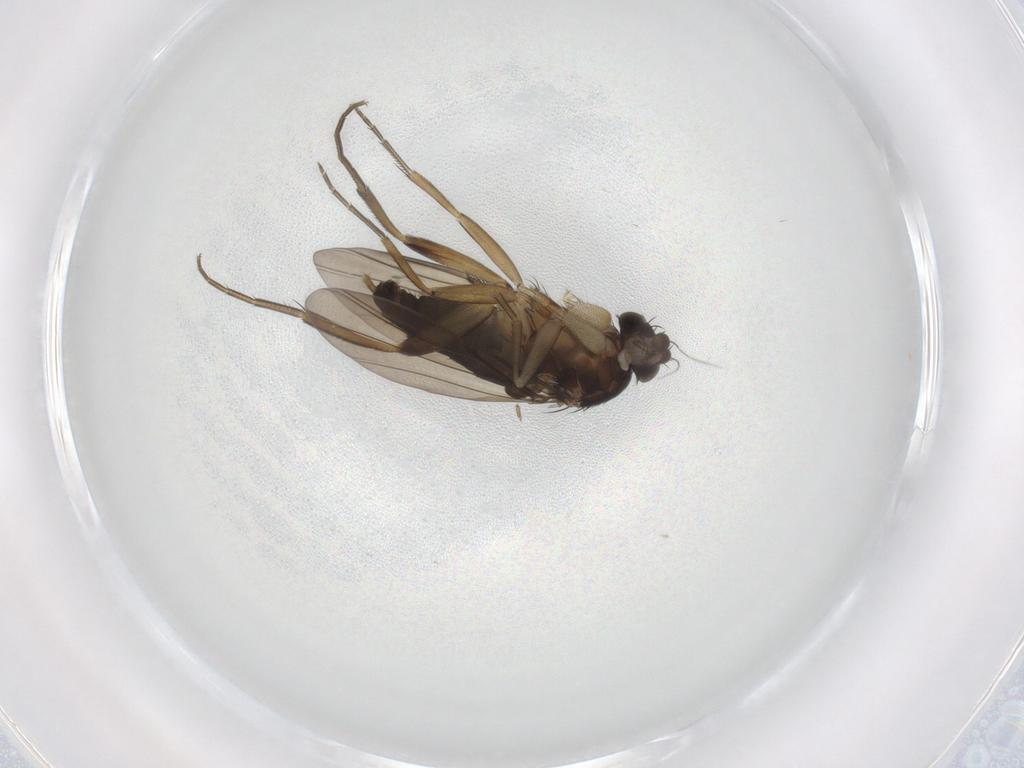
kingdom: Animalia
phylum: Arthropoda
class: Insecta
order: Diptera
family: Phoridae
